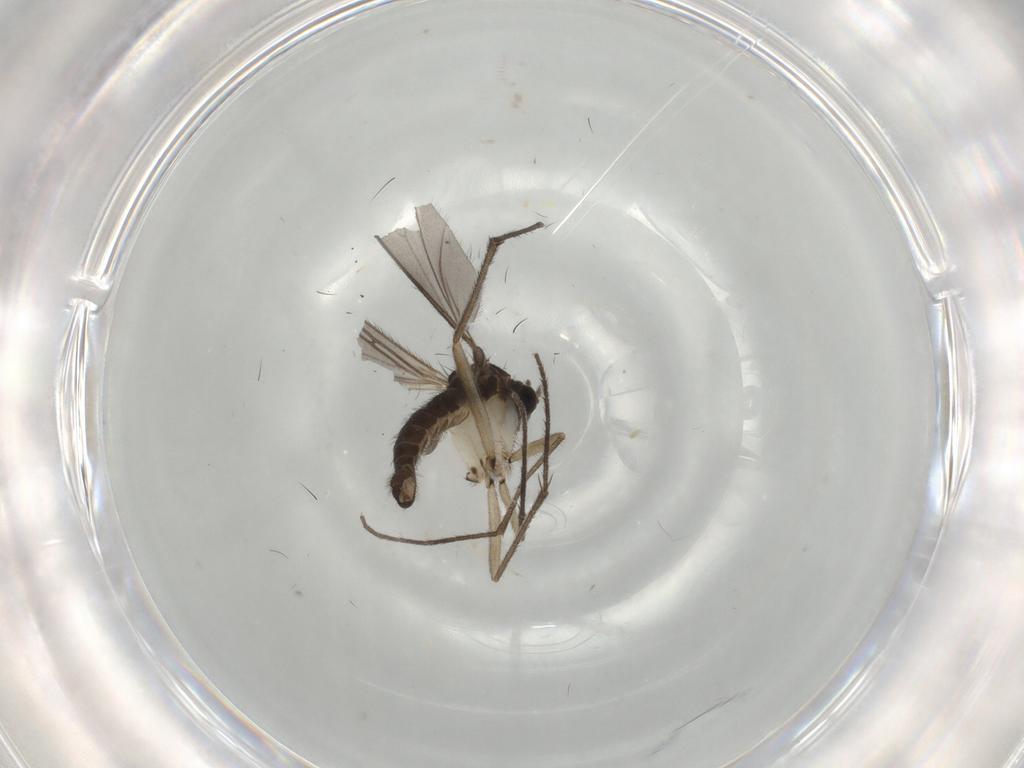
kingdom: Animalia
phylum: Arthropoda
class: Insecta
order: Diptera
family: Sciaridae
